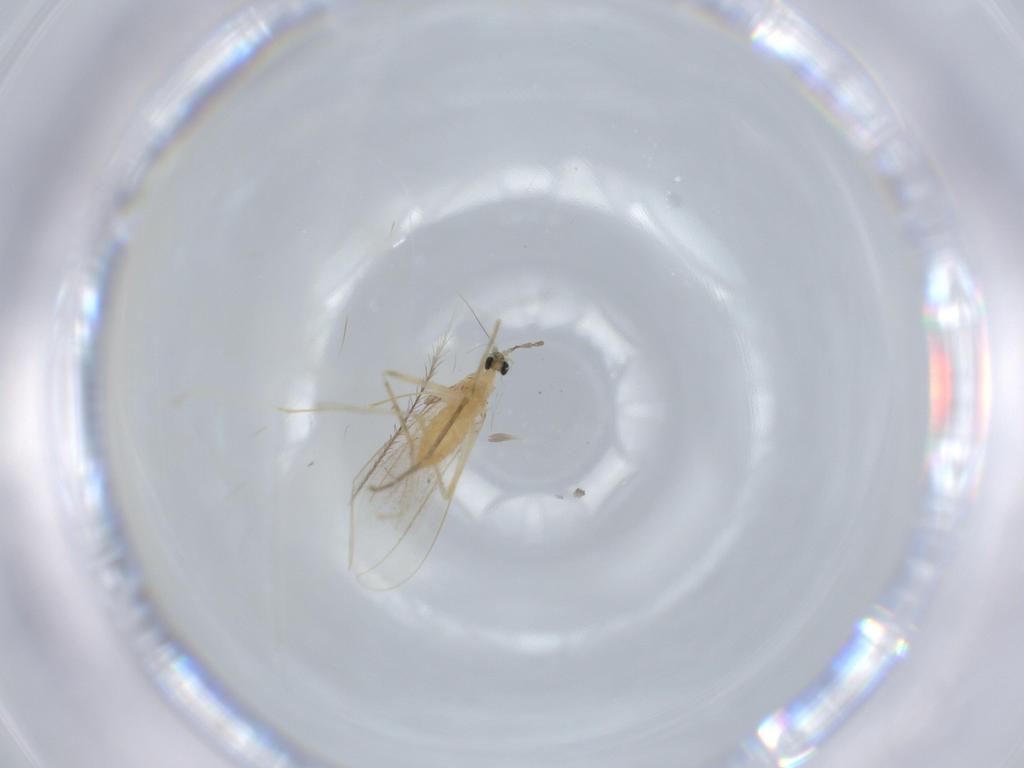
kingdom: Animalia
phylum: Arthropoda
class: Insecta
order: Diptera
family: Cecidomyiidae
